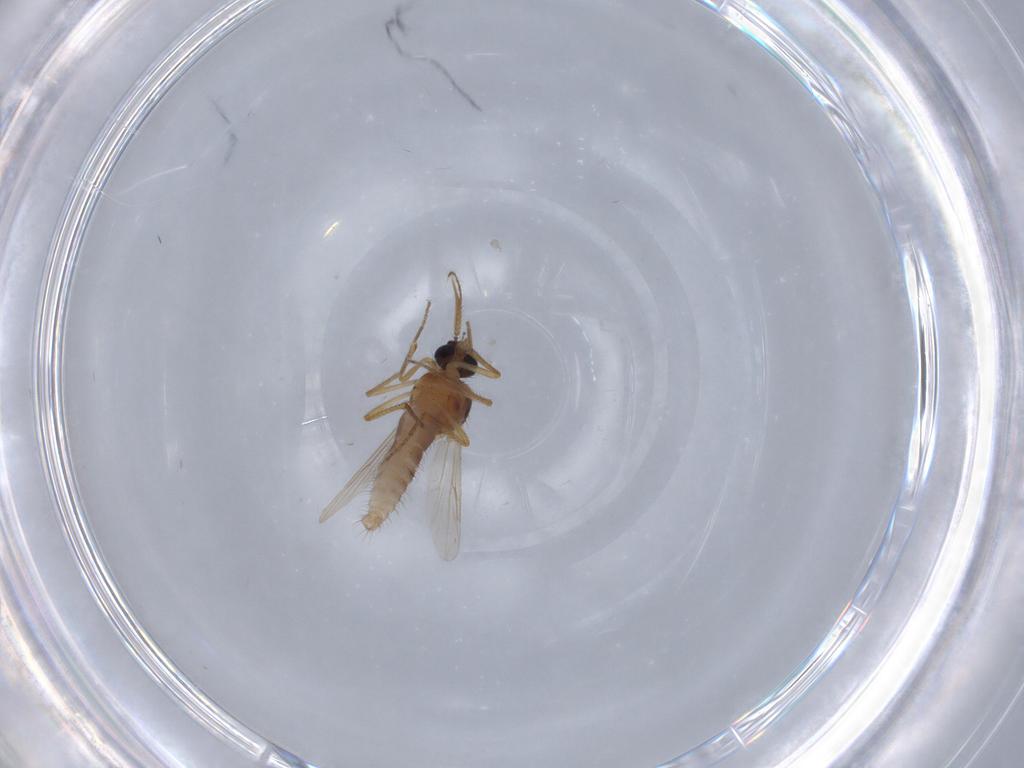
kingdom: Animalia
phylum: Arthropoda
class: Insecta
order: Diptera
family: Ceratopogonidae
